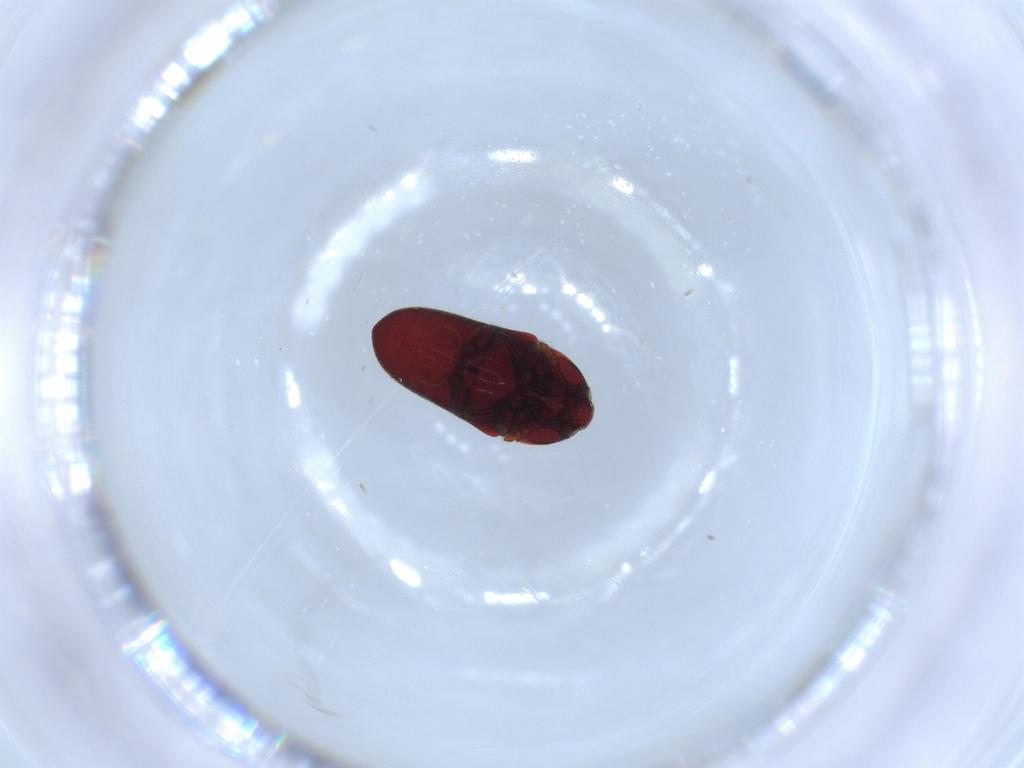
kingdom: Animalia
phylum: Arthropoda
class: Insecta
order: Coleoptera
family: Throscidae
